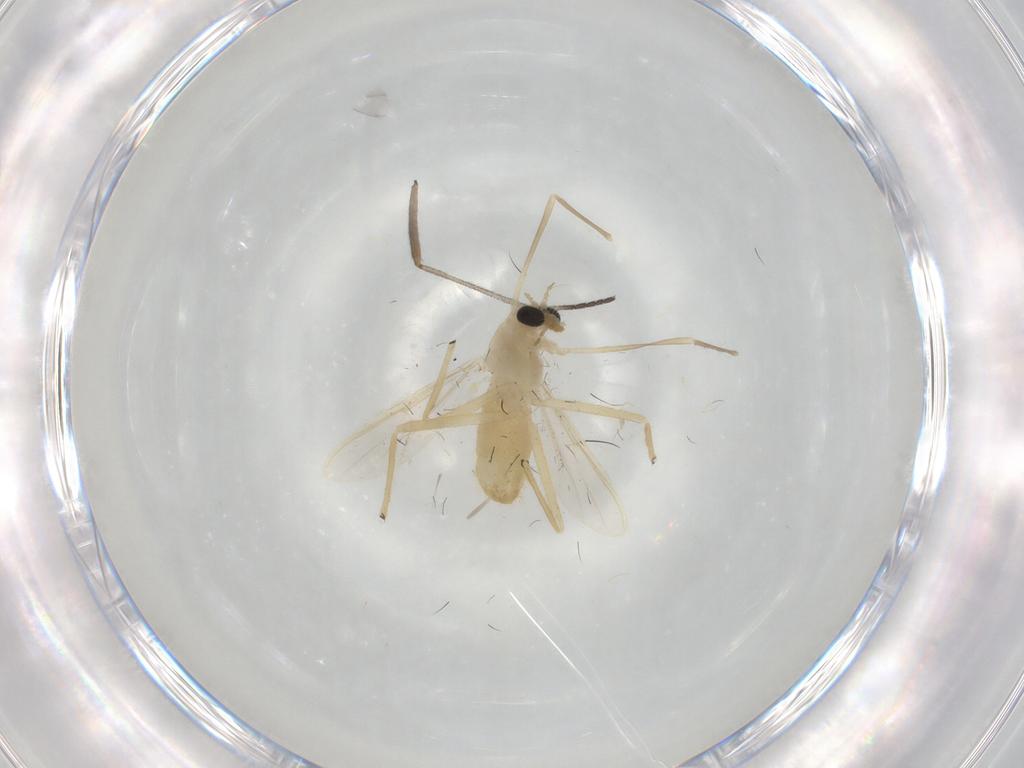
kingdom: Animalia
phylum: Arthropoda
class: Insecta
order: Diptera
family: Chironomidae
